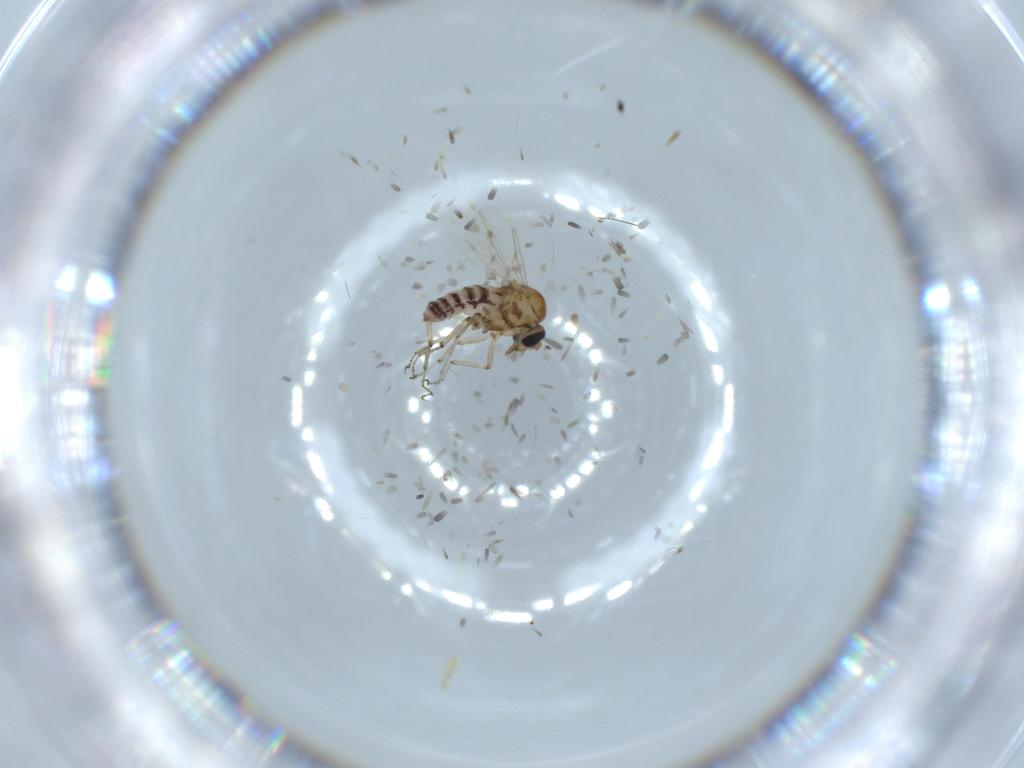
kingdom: Animalia
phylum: Arthropoda
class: Insecta
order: Diptera
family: Ceratopogonidae
